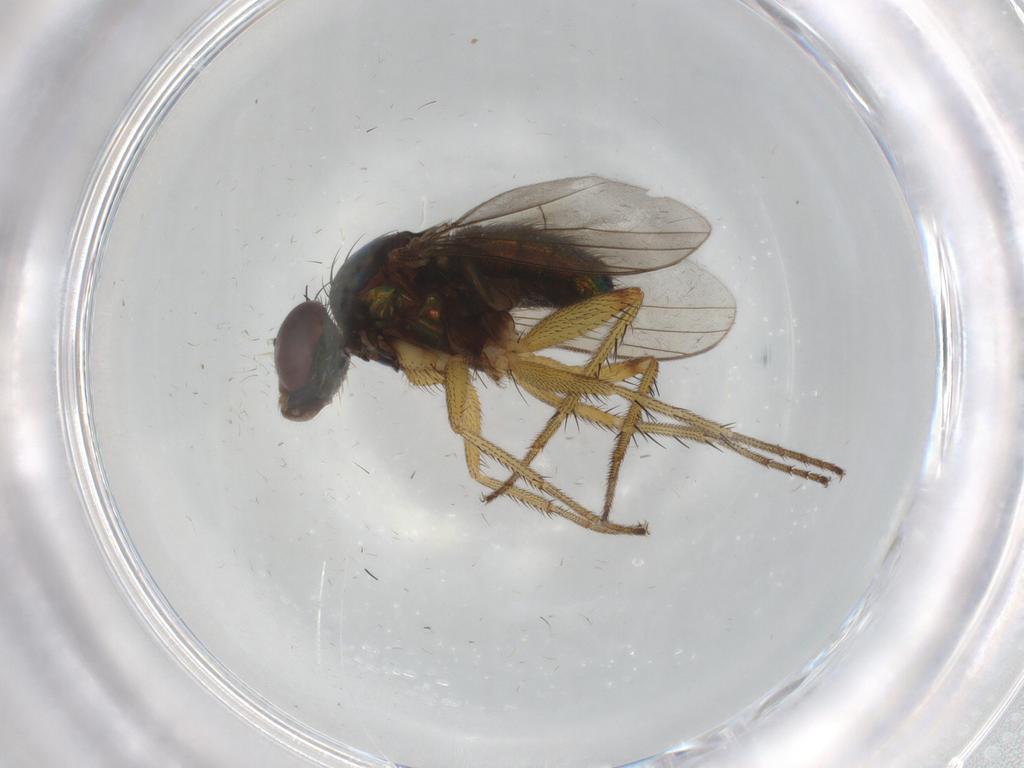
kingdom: Animalia
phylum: Arthropoda
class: Insecta
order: Diptera
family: Dolichopodidae
